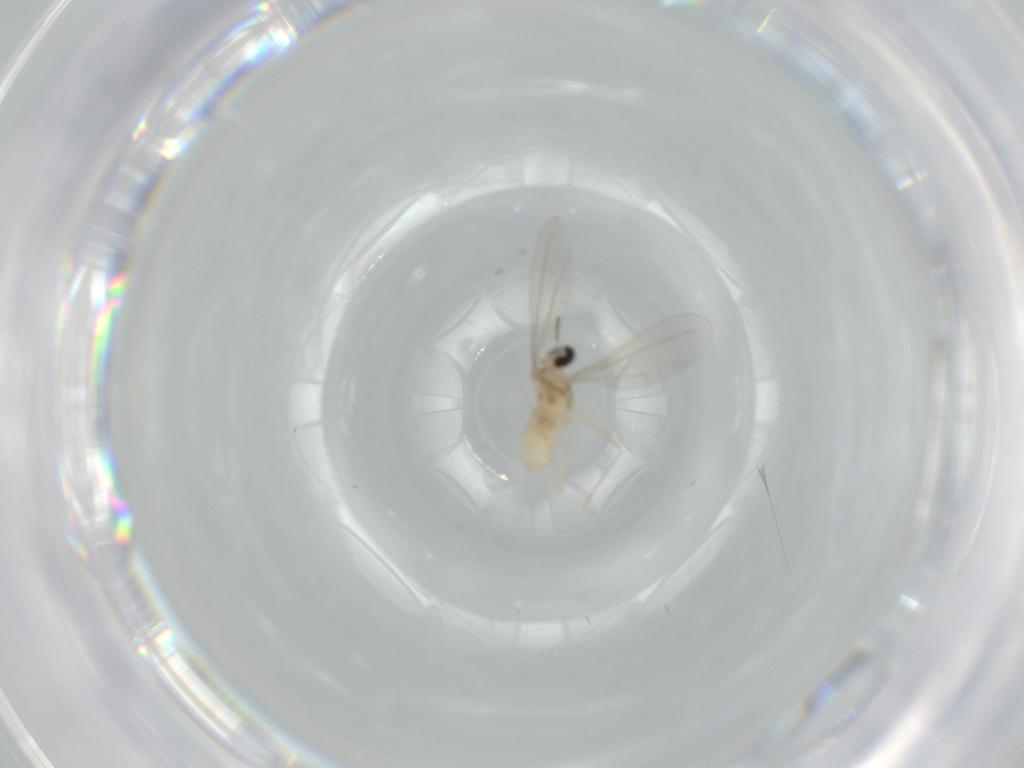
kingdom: Animalia
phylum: Arthropoda
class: Insecta
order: Diptera
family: Cecidomyiidae
